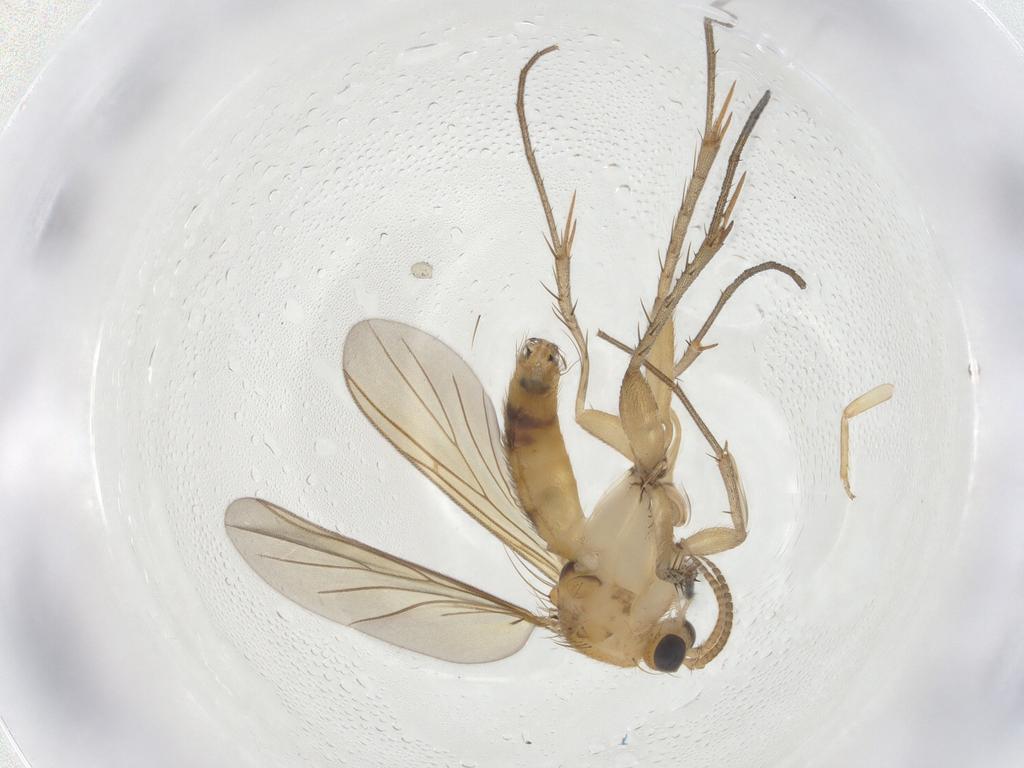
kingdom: Animalia
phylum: Arthropoda
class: Insecta
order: Diptera
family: Mycetophilidae
